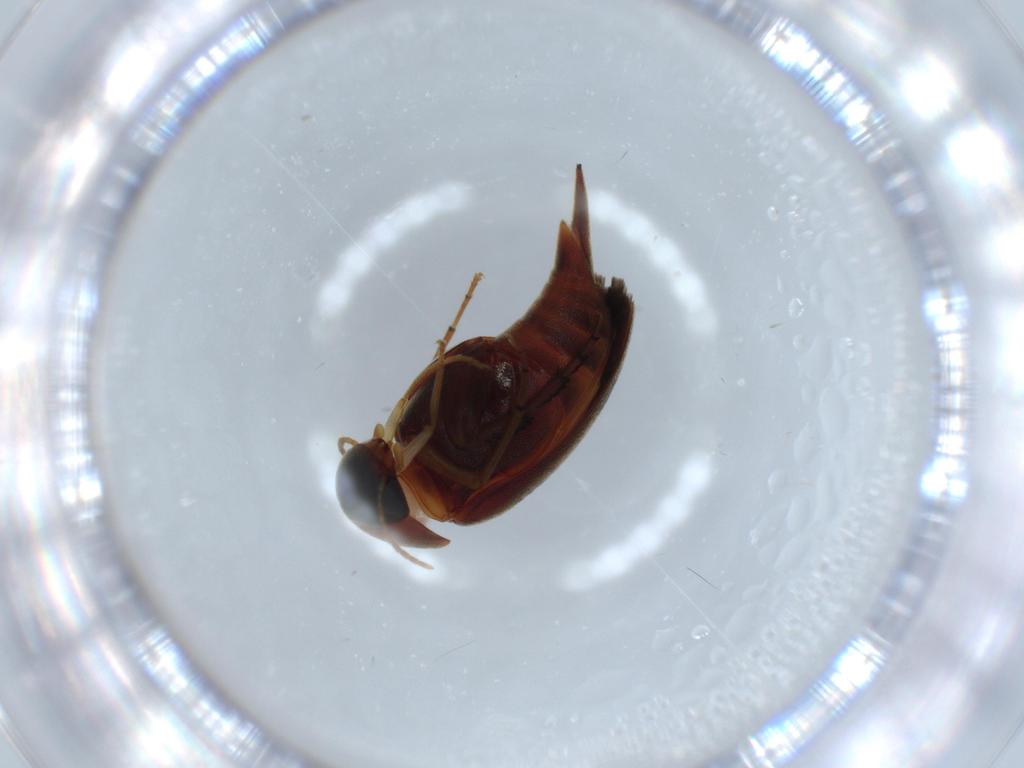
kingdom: Animalia
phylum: Arthropoda
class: Insecta
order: Coleoptera
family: Mordellidae
